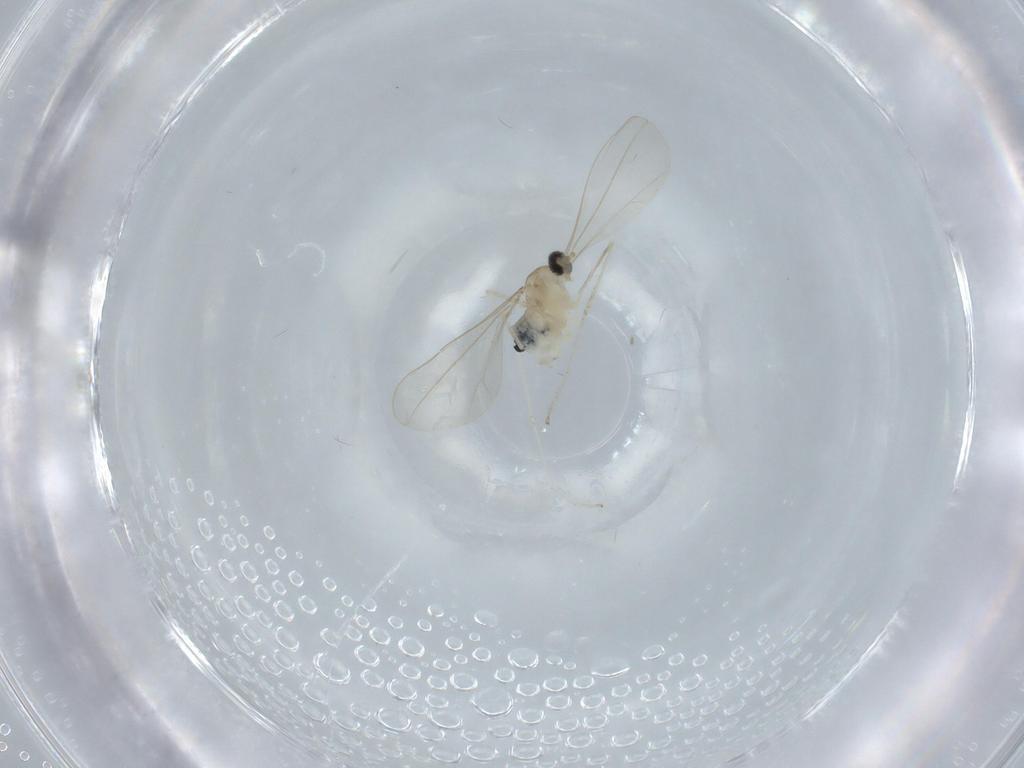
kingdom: Animalia
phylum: Arthropoda
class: Insecta
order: Diptera
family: Cecidomyiidae
